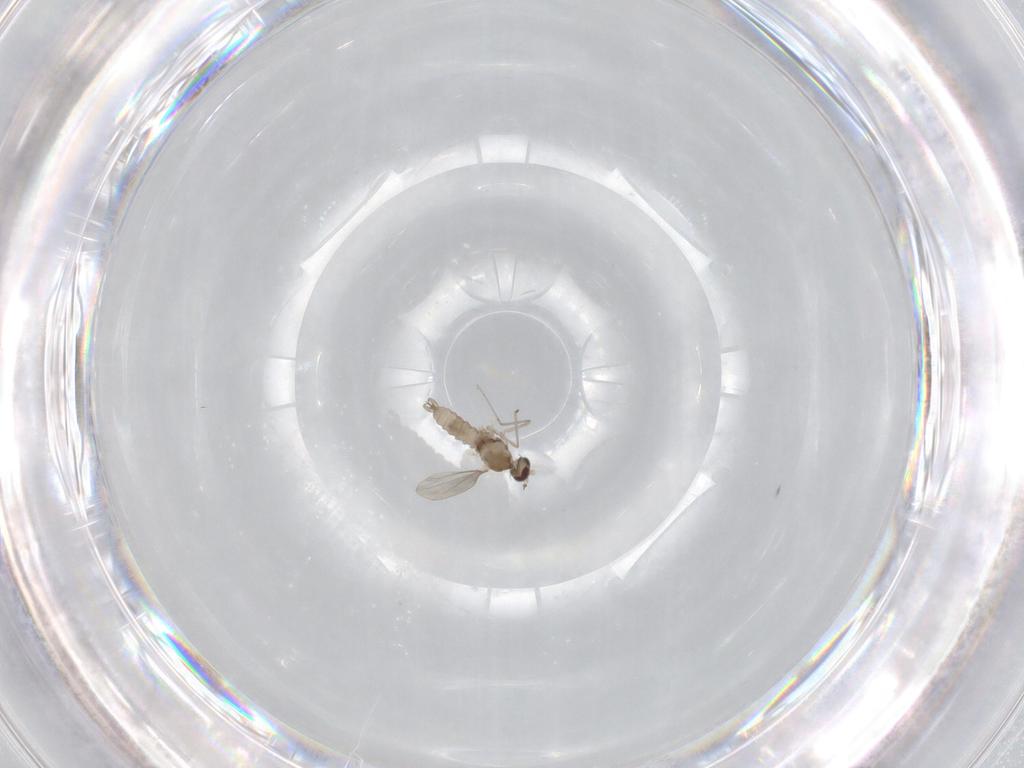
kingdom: Animalia
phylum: Arthropoda
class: Insecta
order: Diptera
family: Cecidomyiidae
